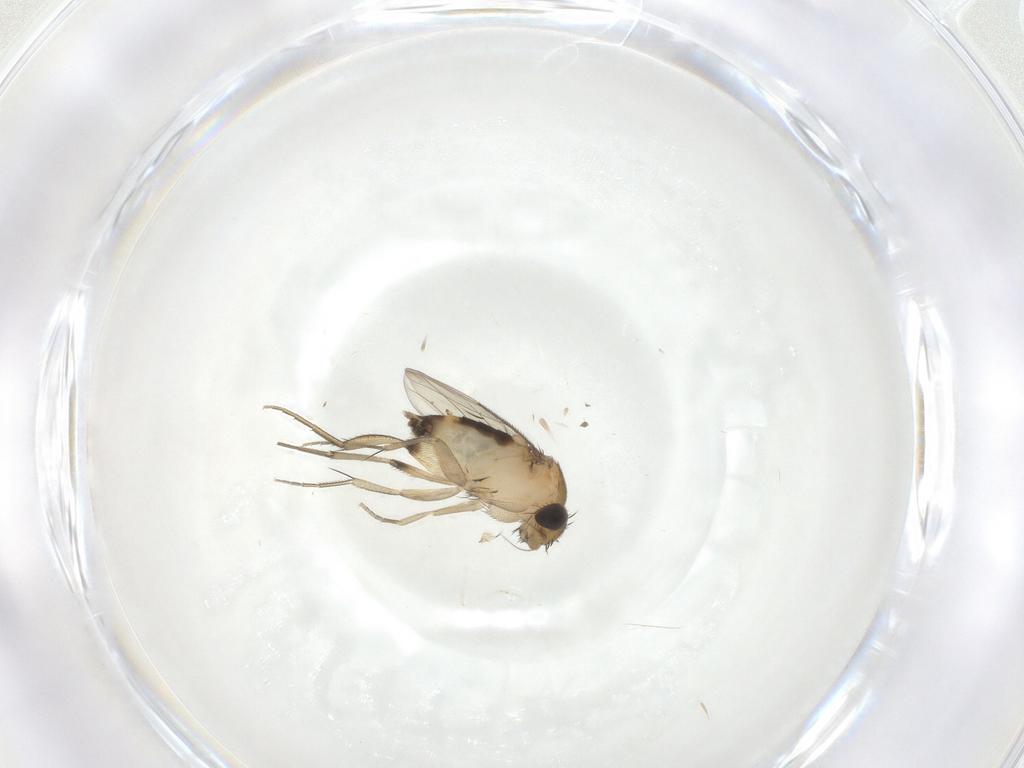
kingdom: Animalia
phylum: Arthropoda
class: Insecta
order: Diptera
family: Phoridae
